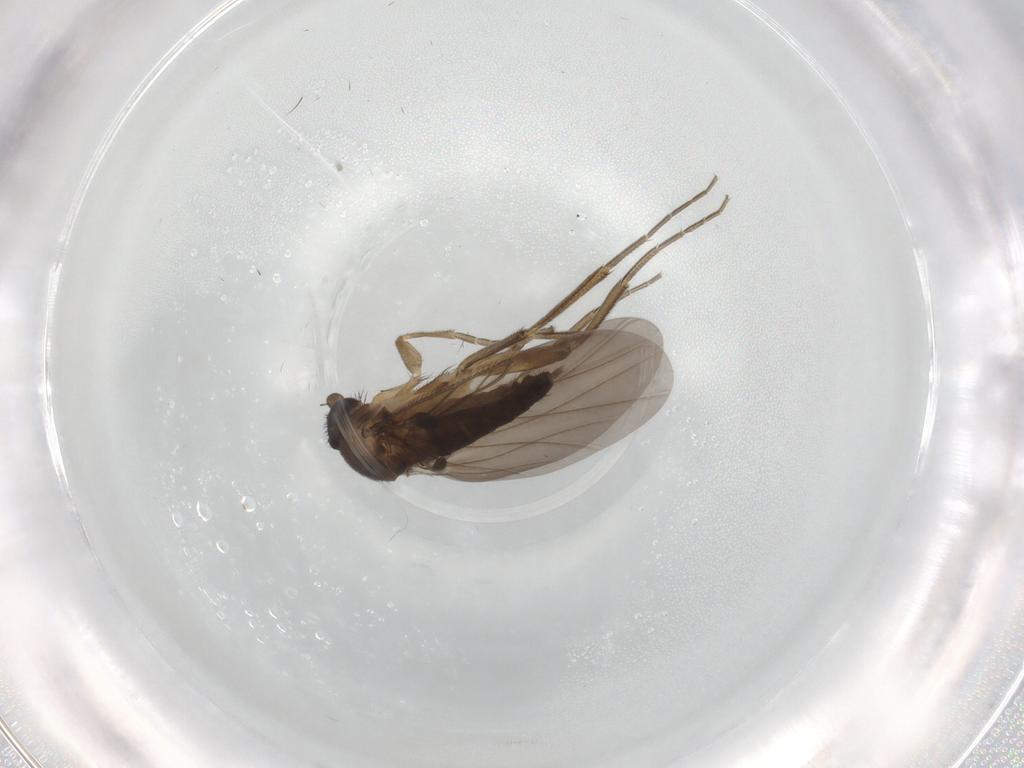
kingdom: Animalia
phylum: Arthropoda
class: Insecta
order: Diptera
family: Phoridae
